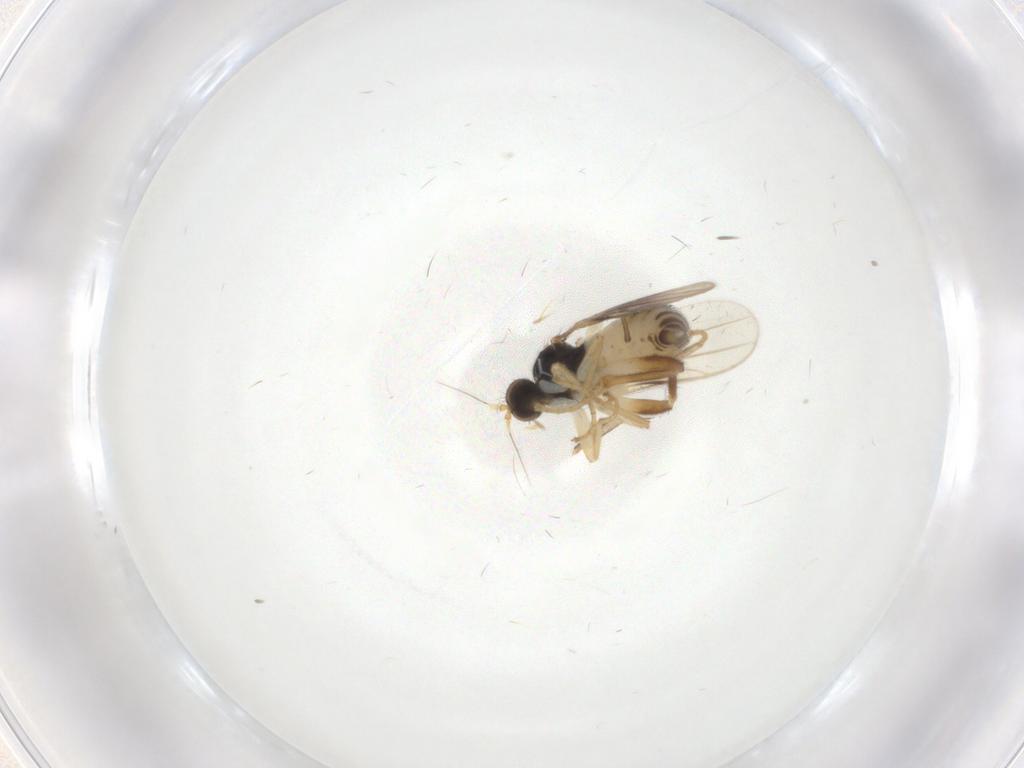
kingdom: Animalia
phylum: Arthropoda
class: Insecta
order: Diptera
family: Hybotidae
